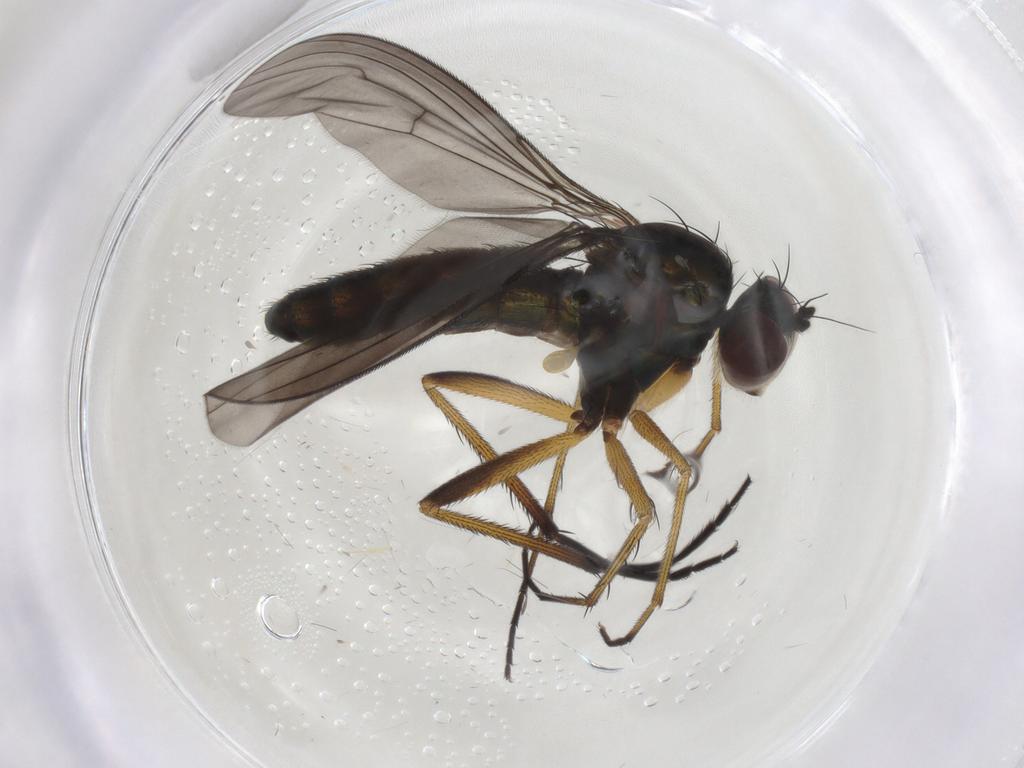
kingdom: Animalia
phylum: Arthropoda
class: Insecta
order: Diptera
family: Dolichopodidae
